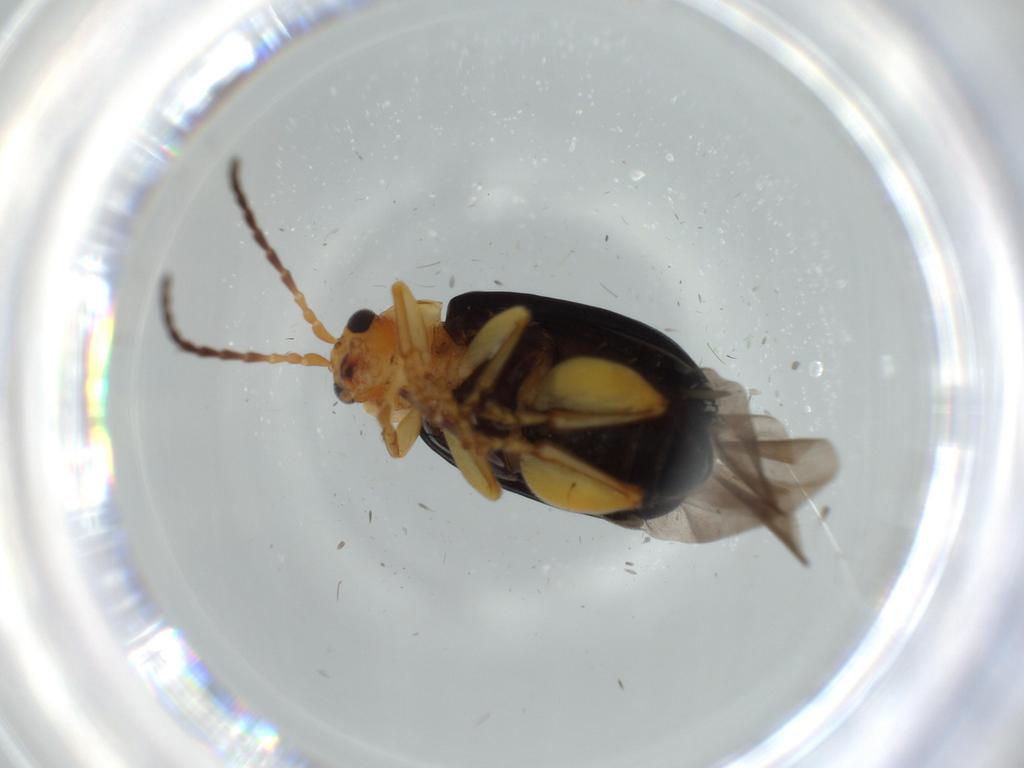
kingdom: Animalia
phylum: Arthropoda
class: Insecta
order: Coleoptera
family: Chrysomelidae
